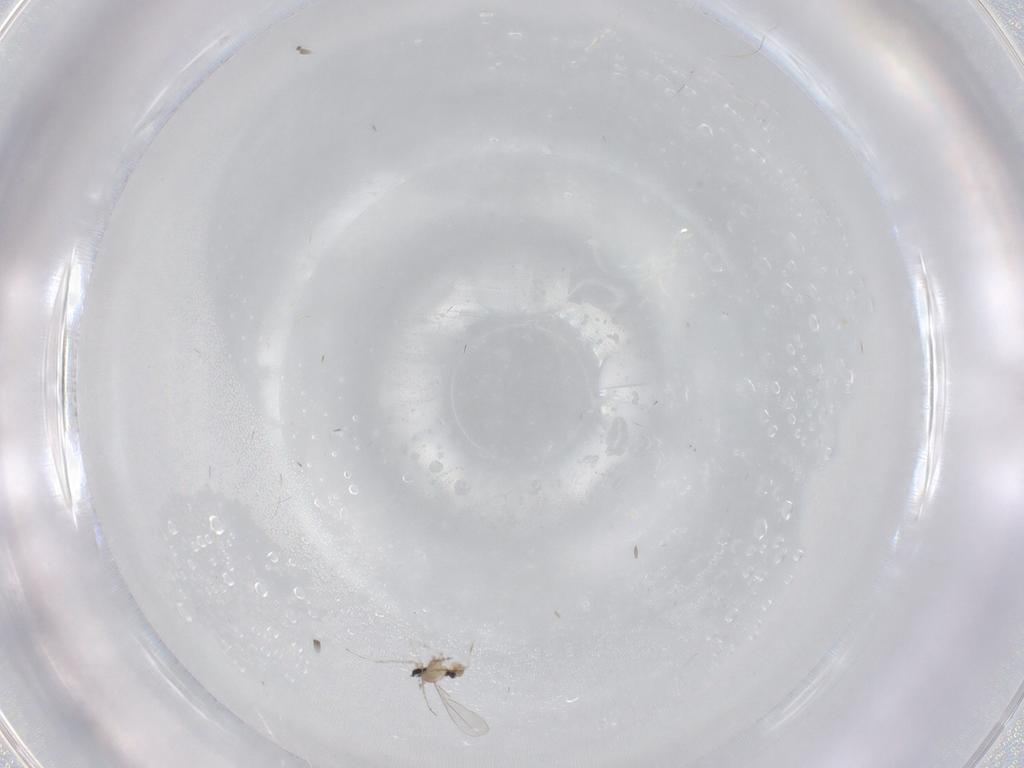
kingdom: Animalia
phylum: Arthropoda
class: Insecta
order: Diptera
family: Cecidomyiidae
